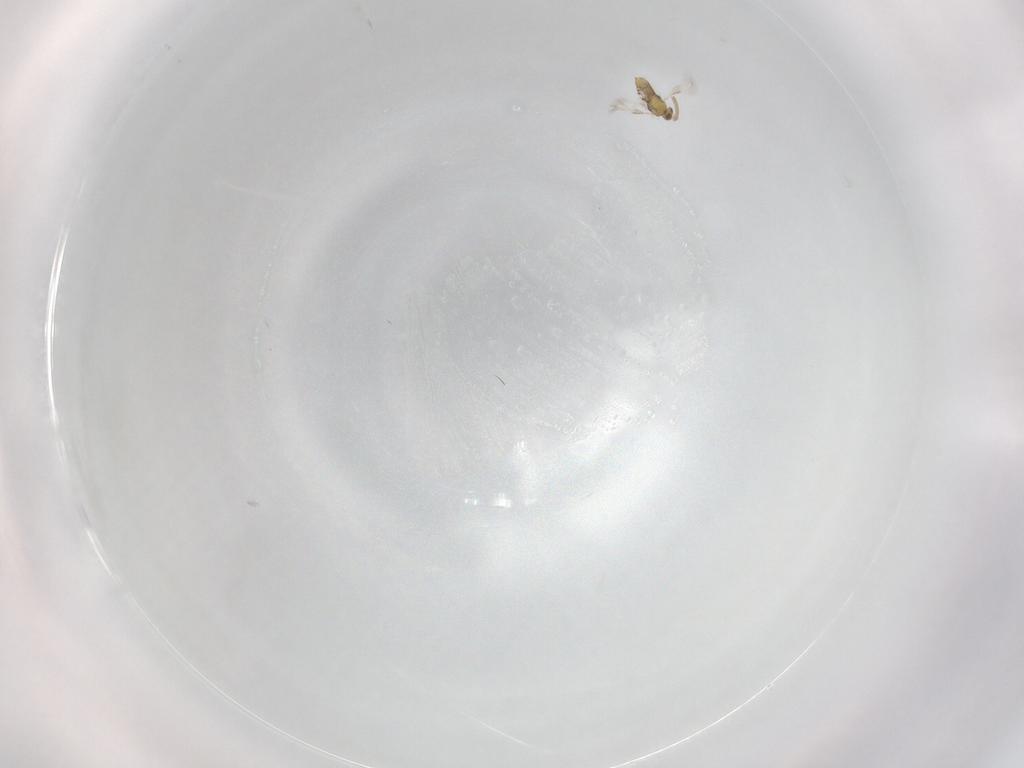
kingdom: Animalia
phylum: Arthropoda
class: Insecta
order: Hymenoptera
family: Aphelinidae
